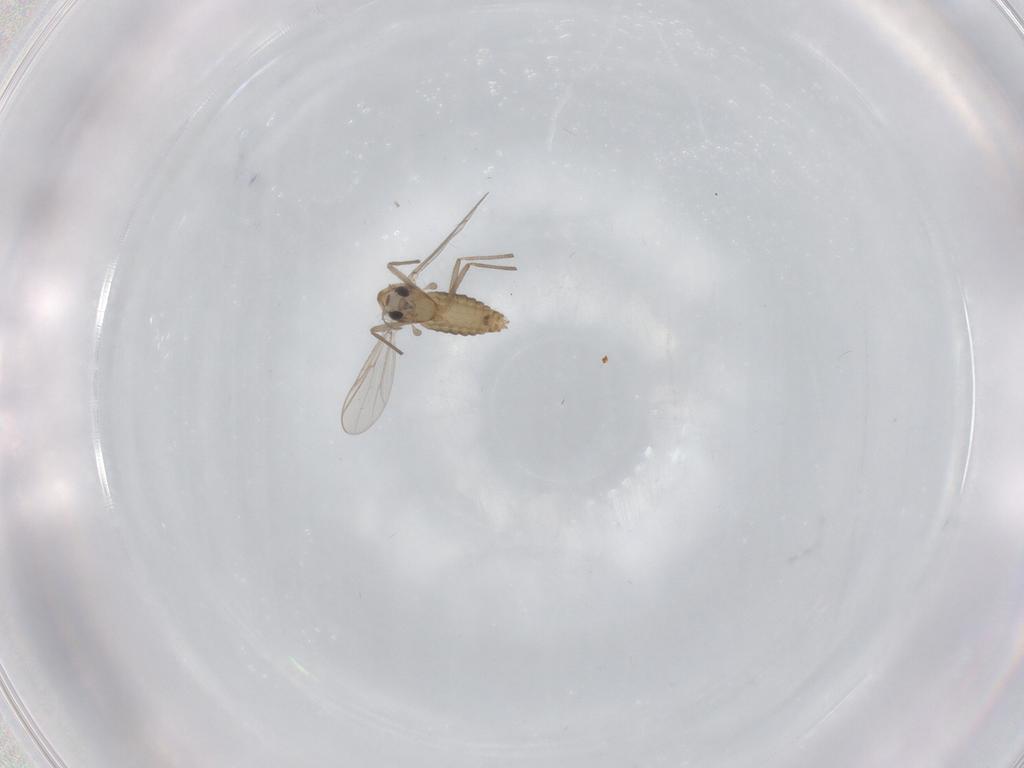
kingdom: Animalia
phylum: Arthropoda
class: Insecta
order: Diptera
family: Chironomidae
